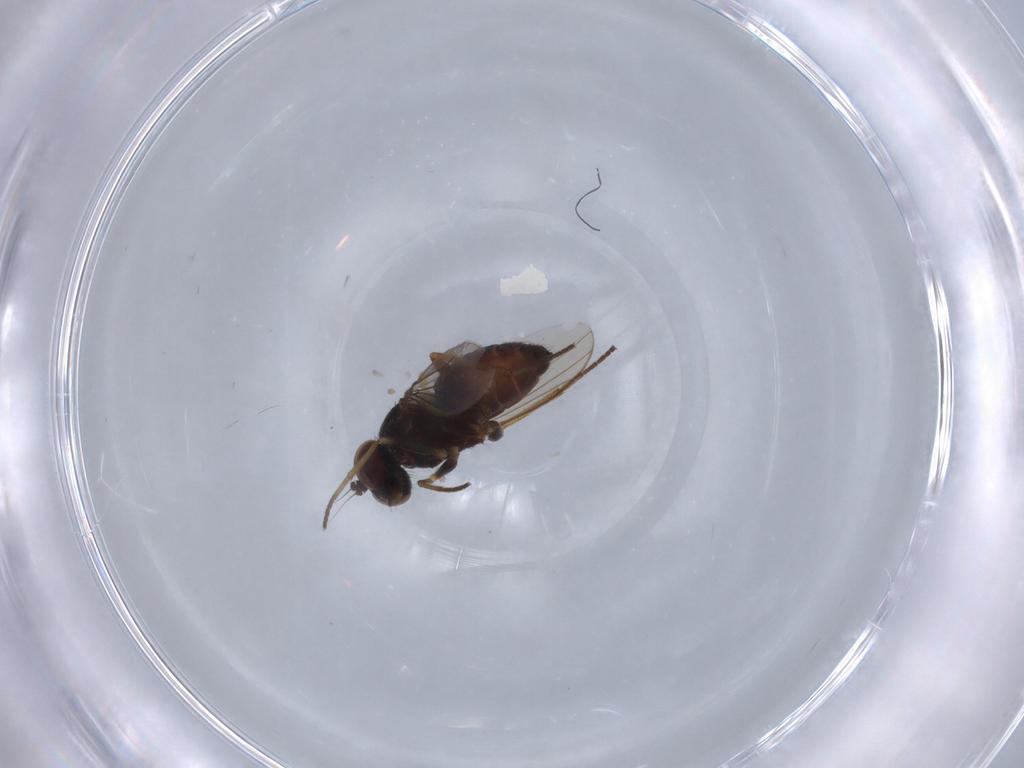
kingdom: Animalia
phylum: Arthropoda
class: Insecta
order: Diptera
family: Dolichopodidae
